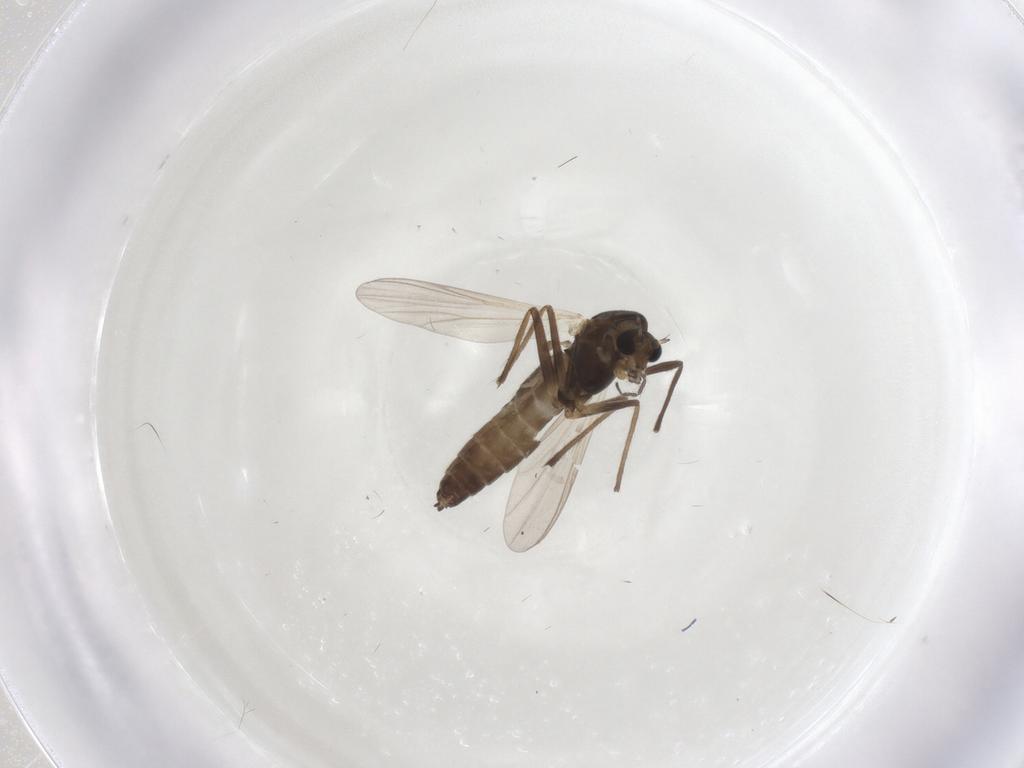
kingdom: Animalia
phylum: Arthropoda
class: Insecta
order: Diptera
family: Chironomidae
